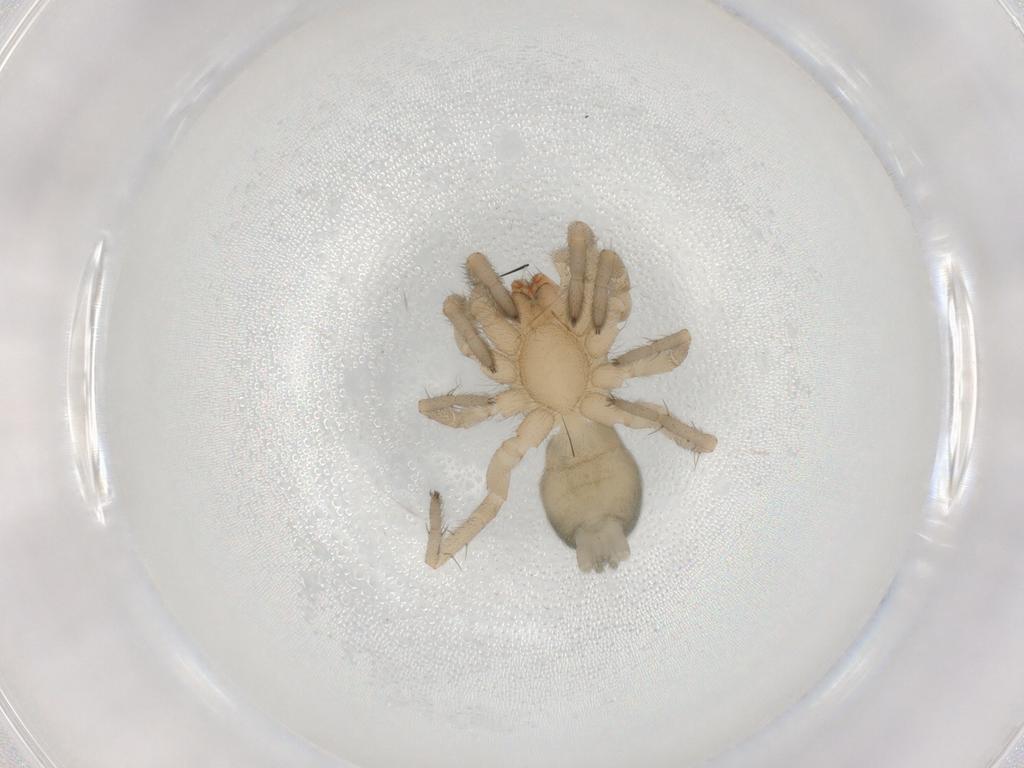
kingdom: Animalia
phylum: Arthropoda
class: Arachnida
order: Araneae
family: Gnaphosidae
